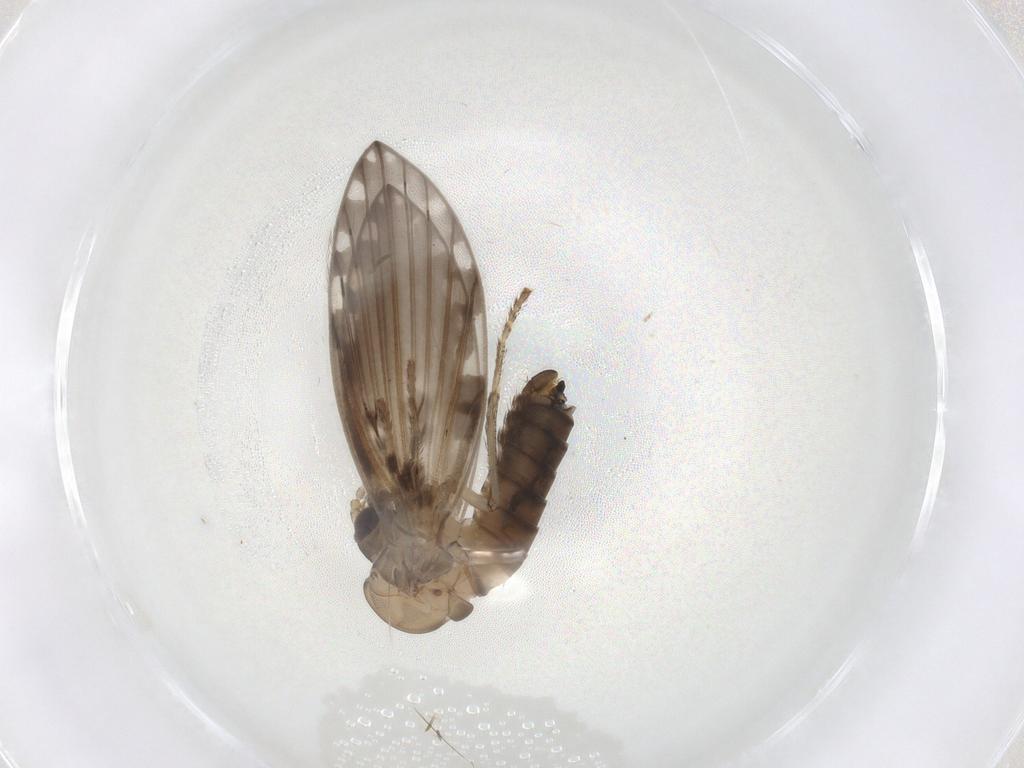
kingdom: Animalia
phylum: Arthropoda
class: Insecta
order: Diptera
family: Psychodidae
